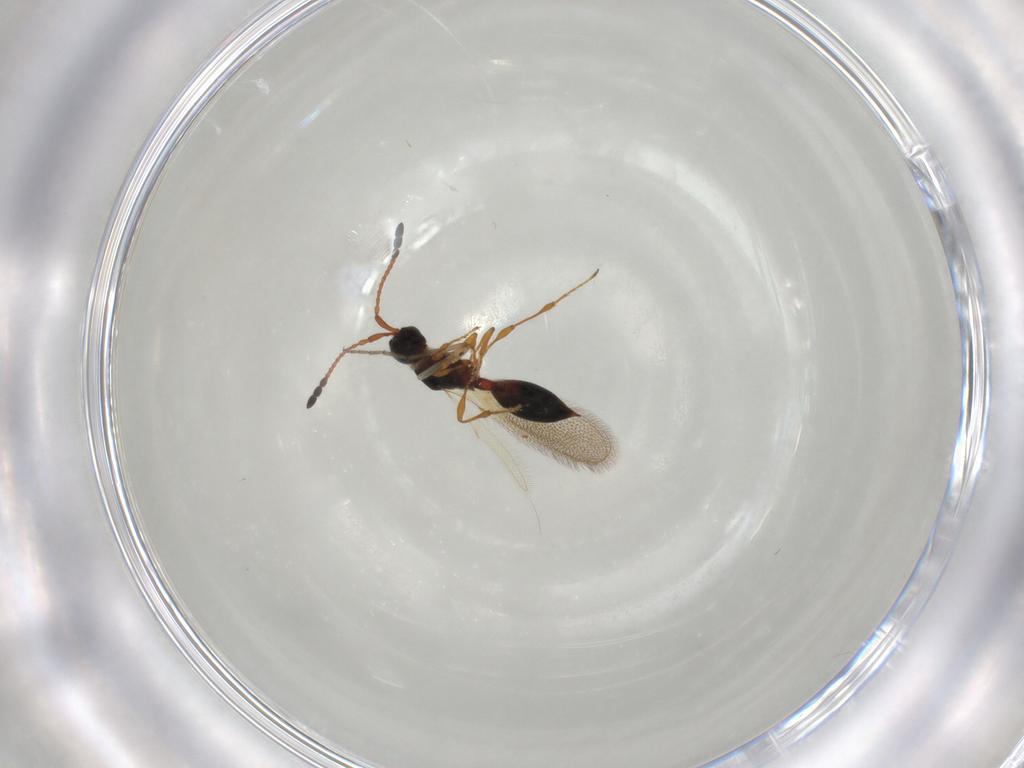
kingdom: Animalia
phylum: Arthropoda
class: Insecta
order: Hymenoptera
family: Diapriidae
